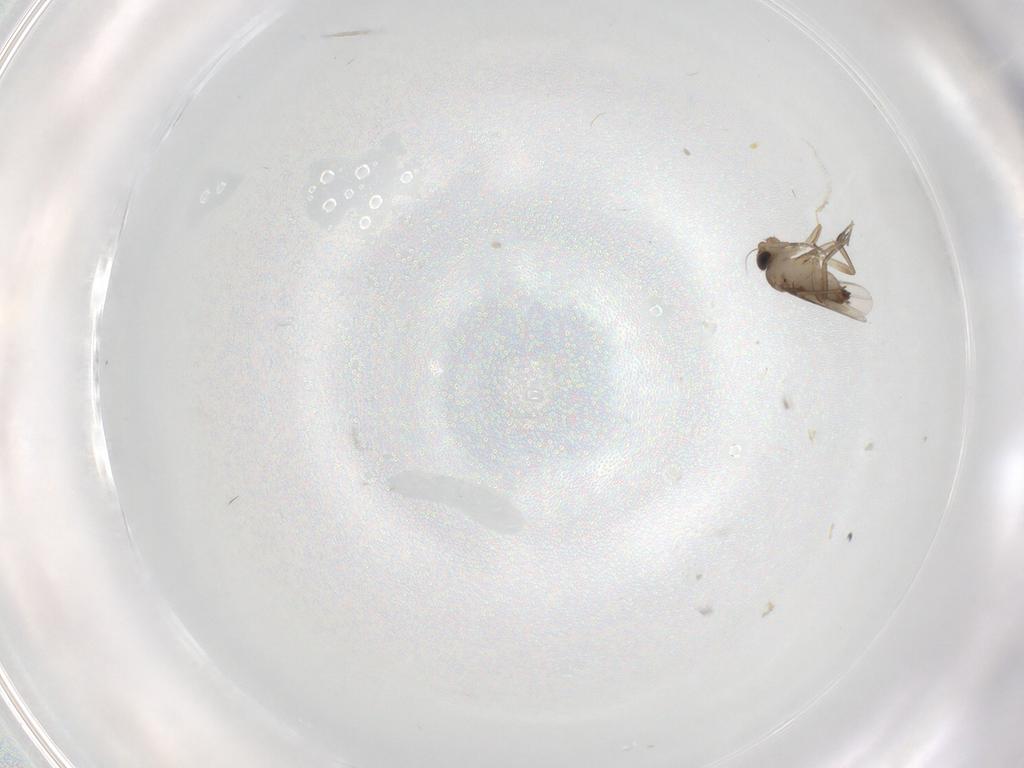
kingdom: Animalia
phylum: Arthropoda
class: Insecta
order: Diptera
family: Phoridae
